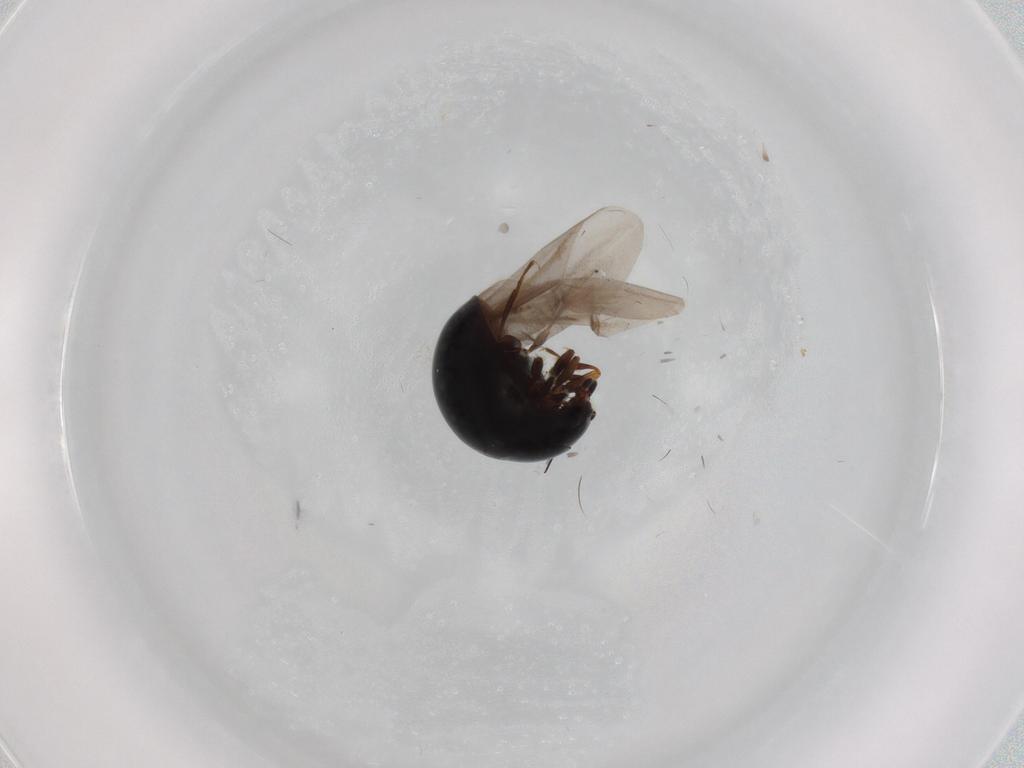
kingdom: Animalia
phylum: Arthropoda
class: Insecta
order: Coleoptera
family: Anamorphidae
